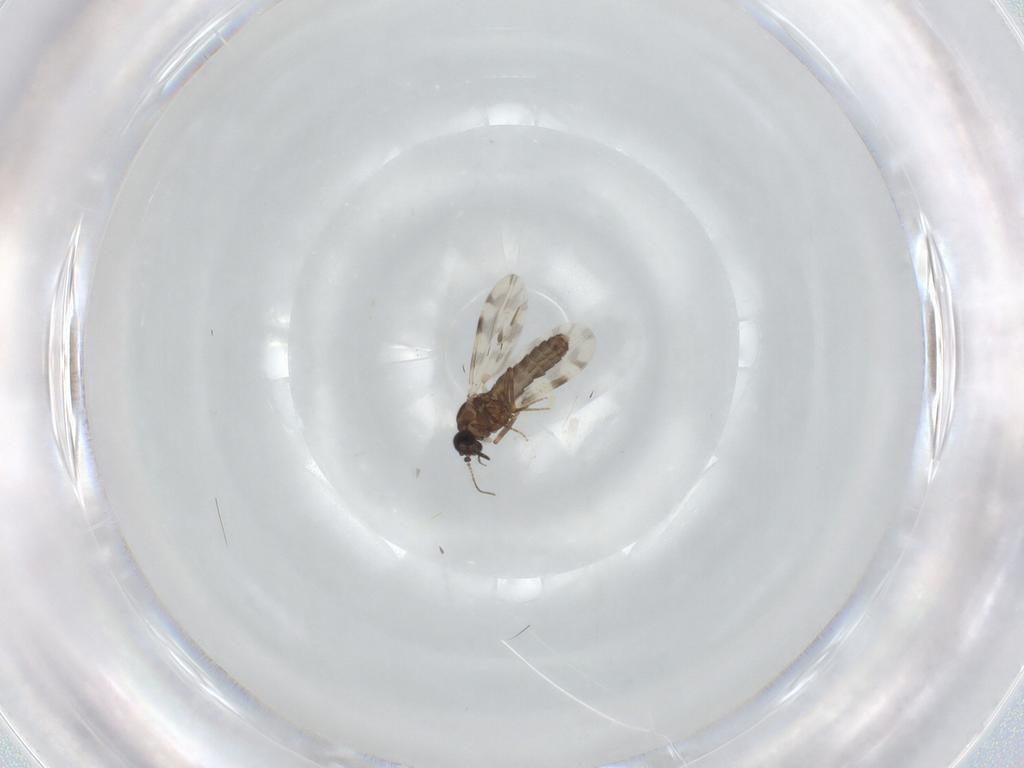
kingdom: Animalia
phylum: Arthropoda
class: Insecta
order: Diptera
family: Ceratopogonidae
